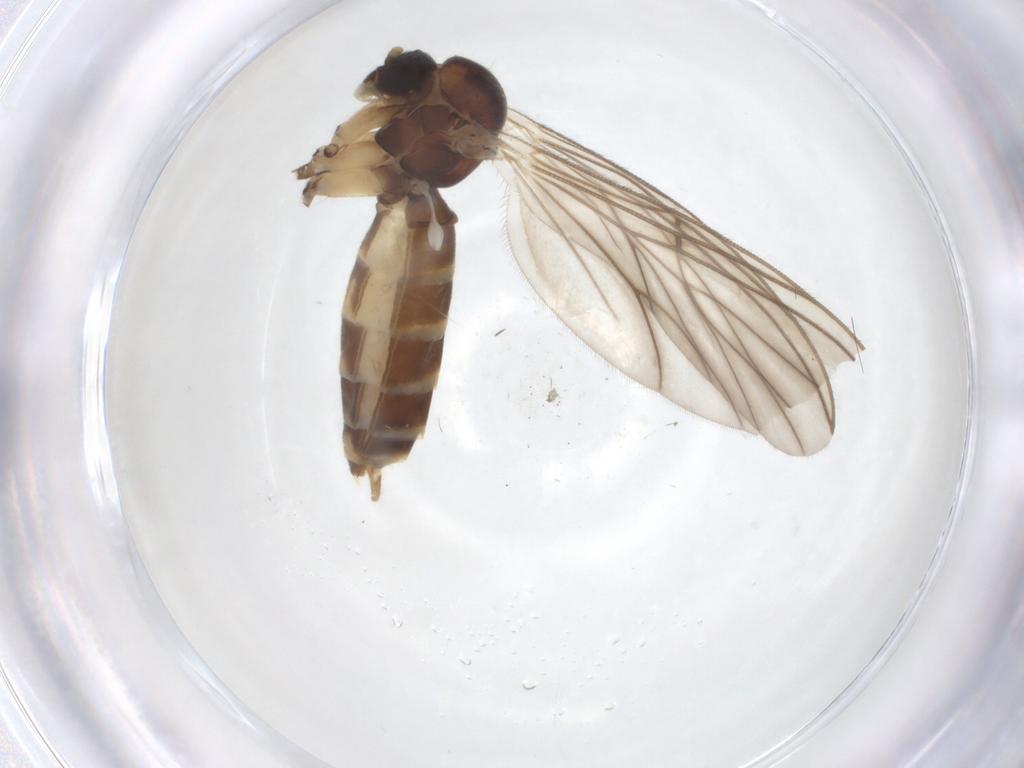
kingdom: Animalia
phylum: Arthropoda
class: Insecta
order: Diptera
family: Mycetophilidae
